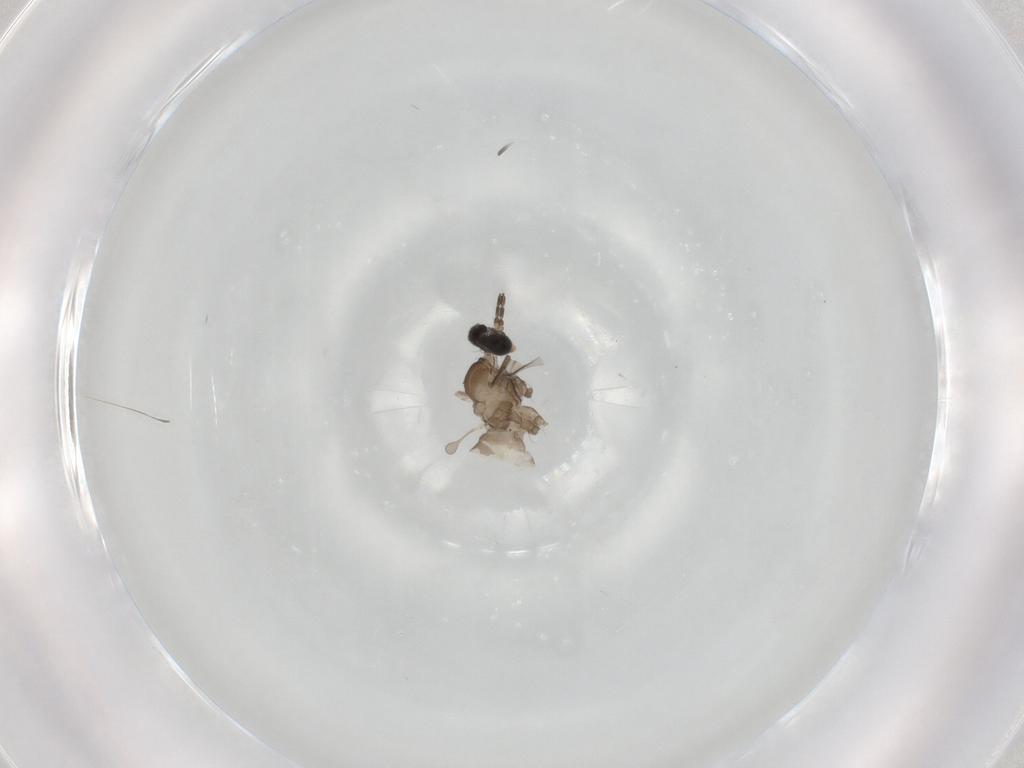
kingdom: Animalia
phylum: Arthropoda
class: Insecta
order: Diptera
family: Cecidomyiidae
